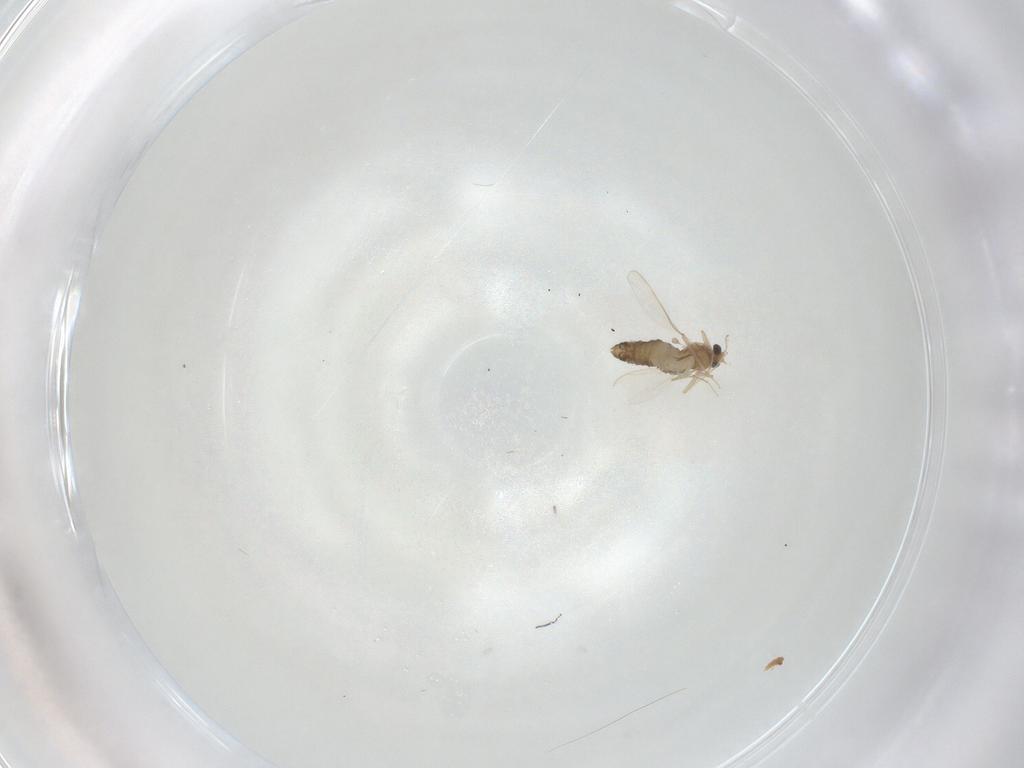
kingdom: Animalia
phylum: Arthropoda
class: Insecta
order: Diptera
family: Chironomidae
